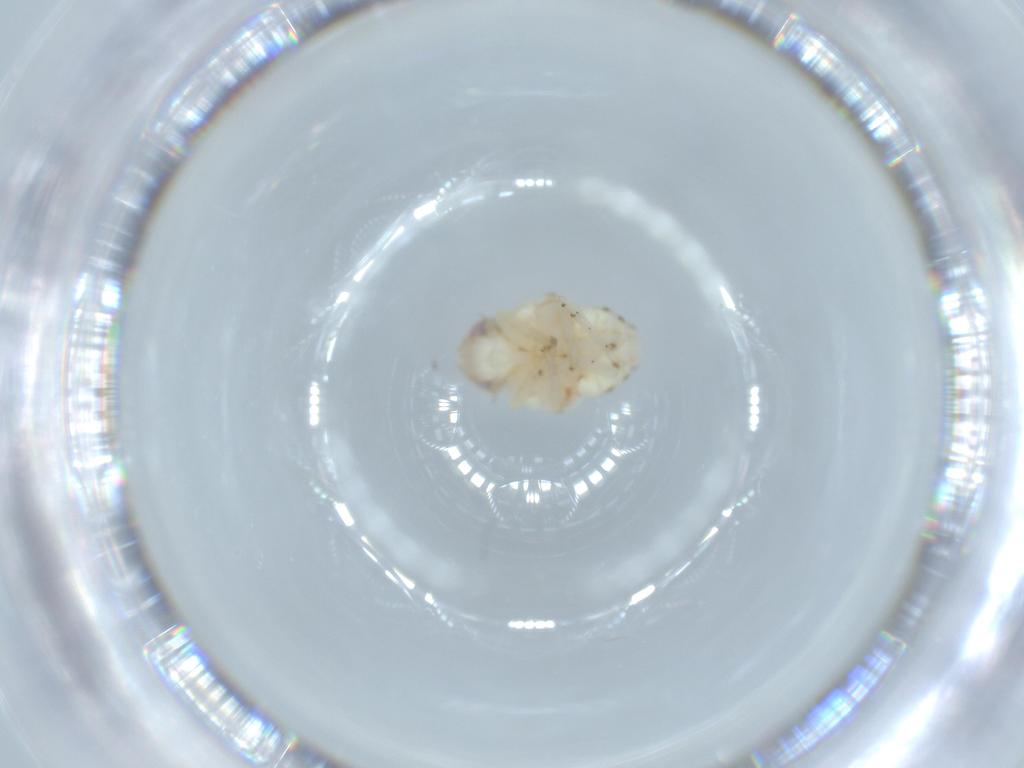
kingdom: Animalia
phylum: Arthropoda
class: Insecta
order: Hemiptera
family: Nogodinidae
